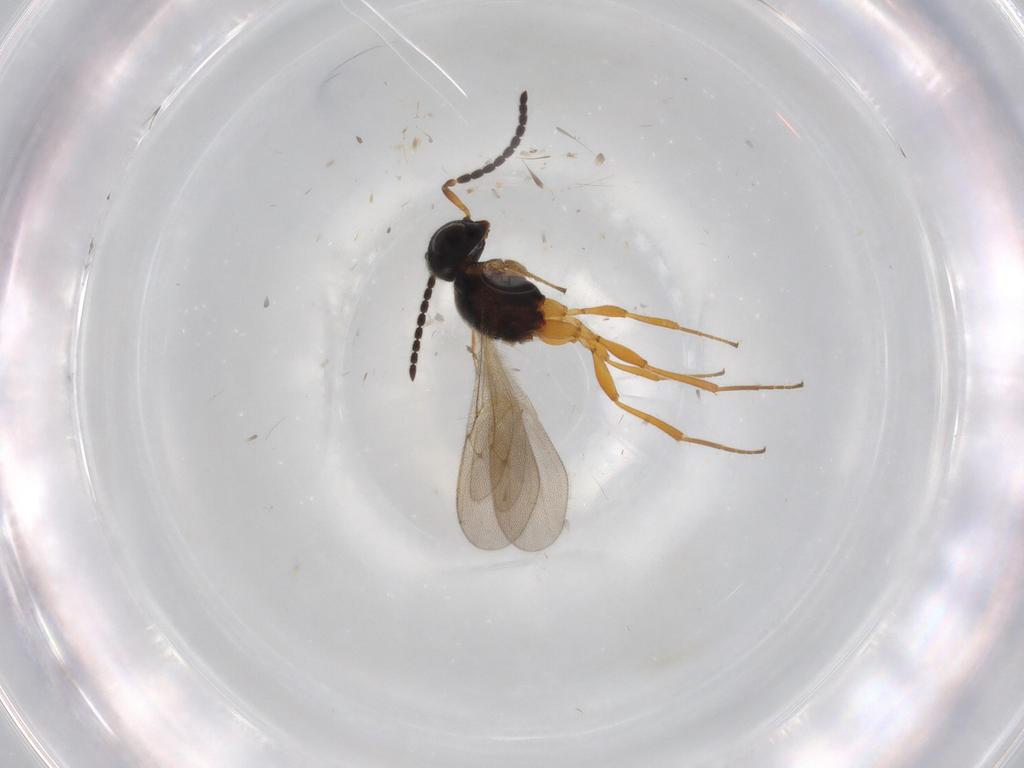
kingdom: Animalia
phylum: Arthropoda
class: Insecta
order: Hymenoptera
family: Scelionidae
